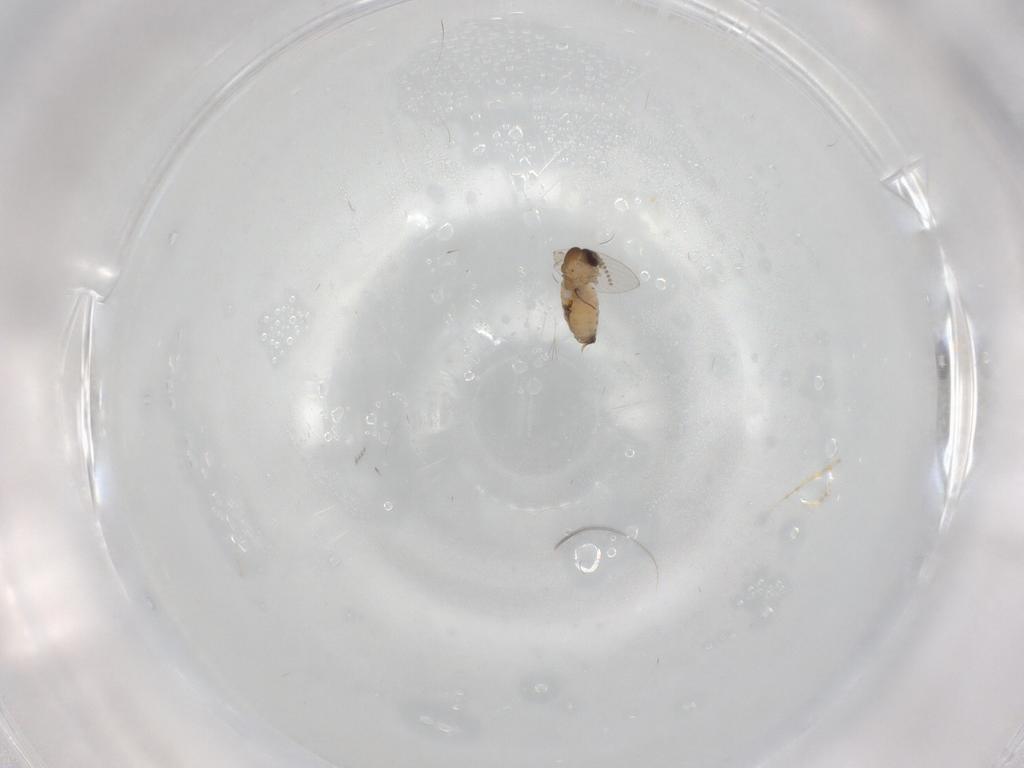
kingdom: Animalia
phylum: Arthropoda
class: Insecta
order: Diptera
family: Psychodidae
